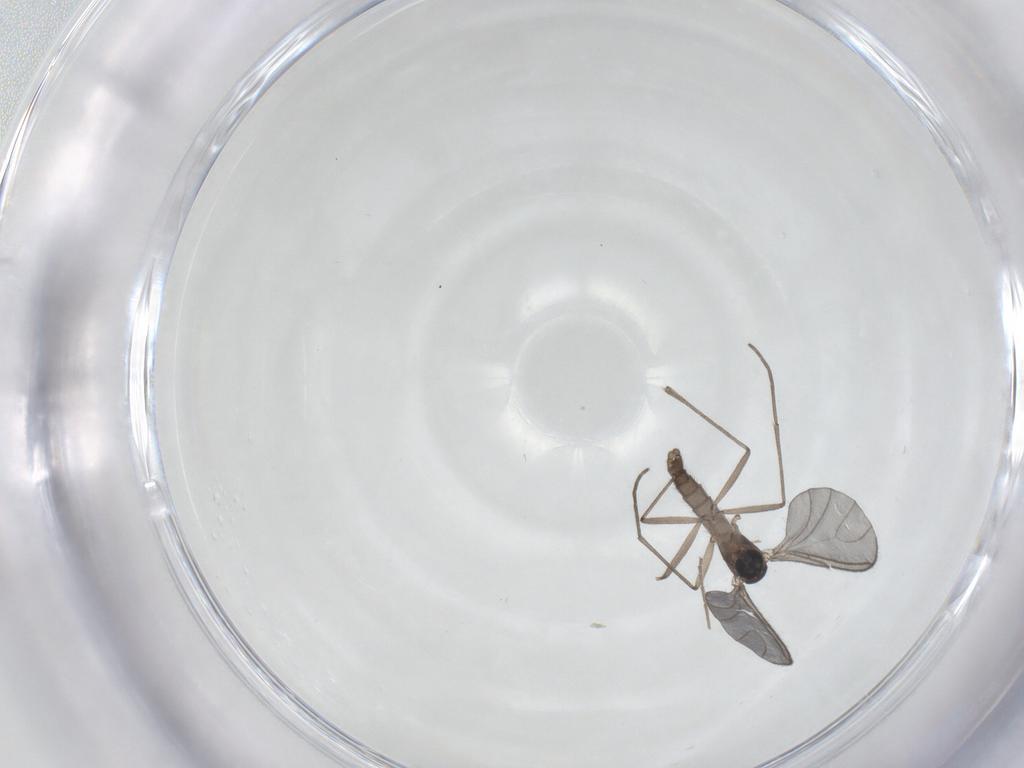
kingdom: Animalia
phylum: Arthropoda
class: Insecta
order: Diptera
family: Sciaridae
